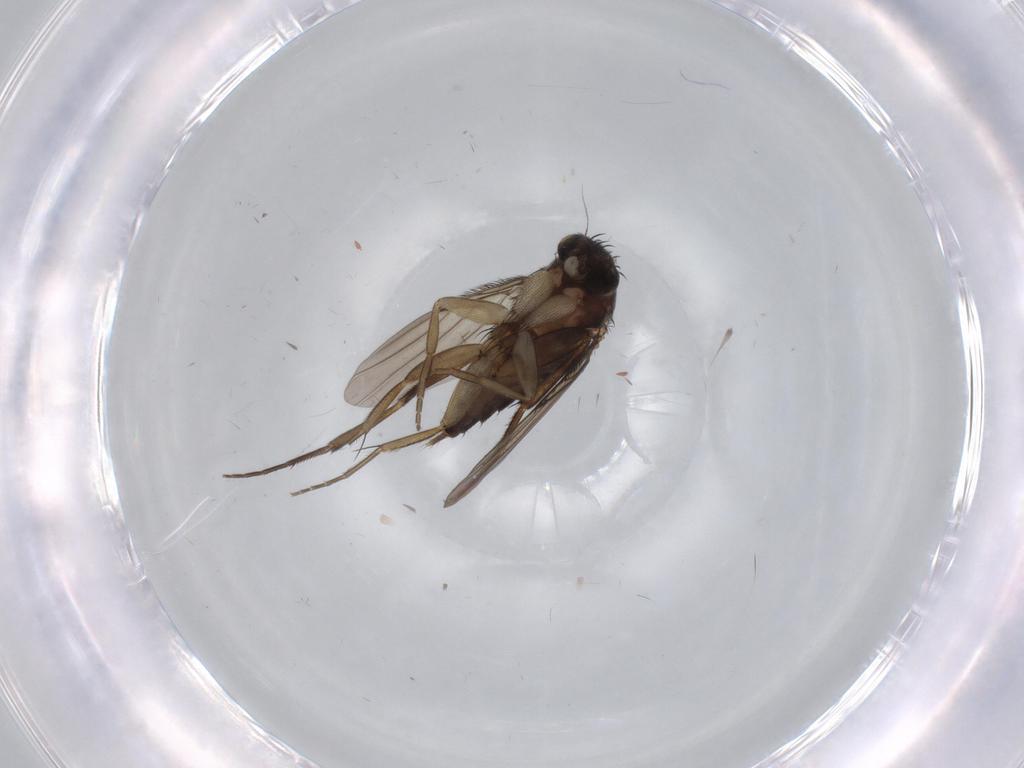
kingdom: Animalia
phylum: Arthropoda
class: Insecta
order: Diptera
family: Phoridae
